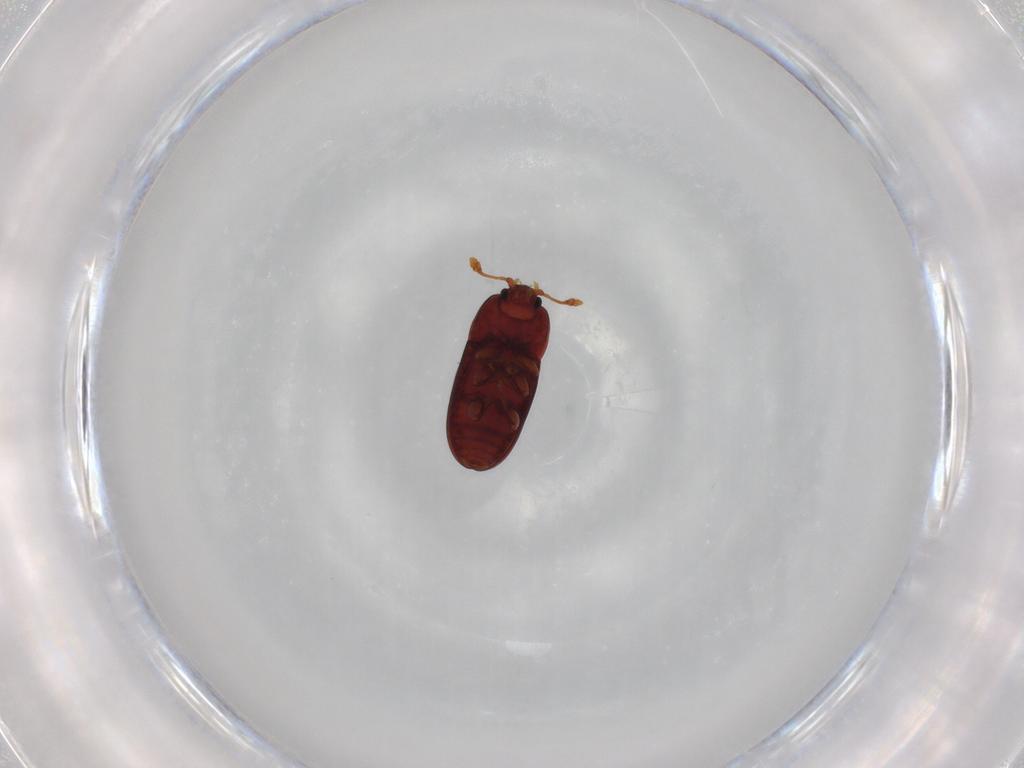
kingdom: Animalia
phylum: Arthropoda
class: Insecta
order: Coleoptera
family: Cerylonidae
